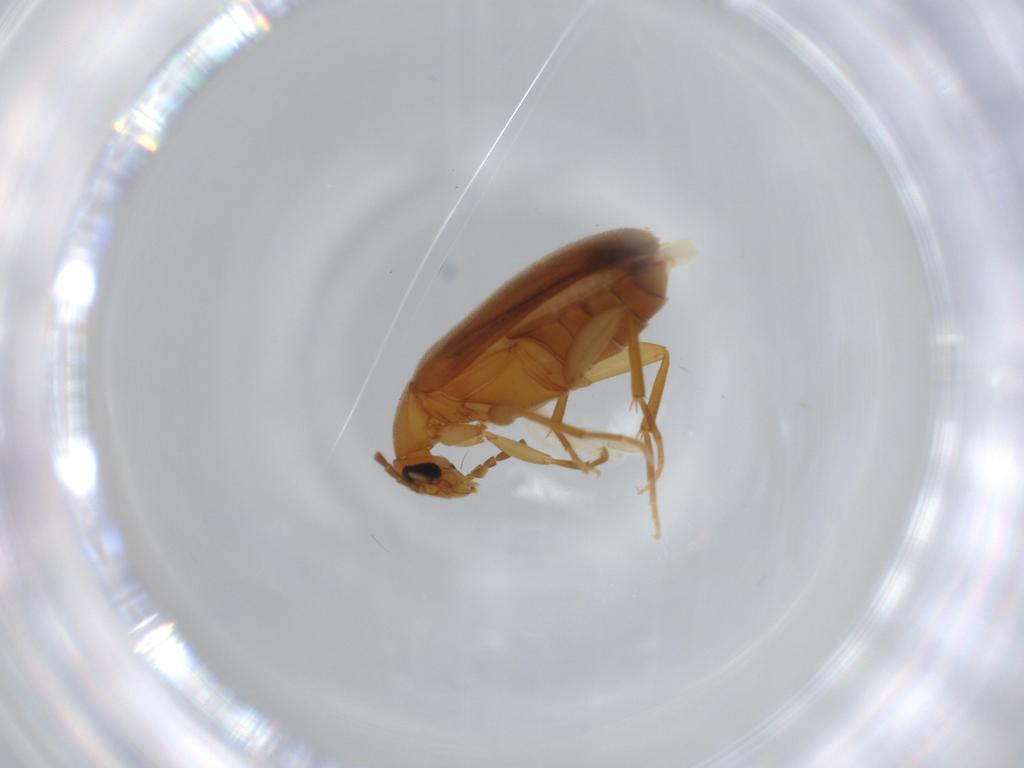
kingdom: Animalia
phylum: Arthropoda
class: Insecta
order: Coleoptera
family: Scraptiidae
